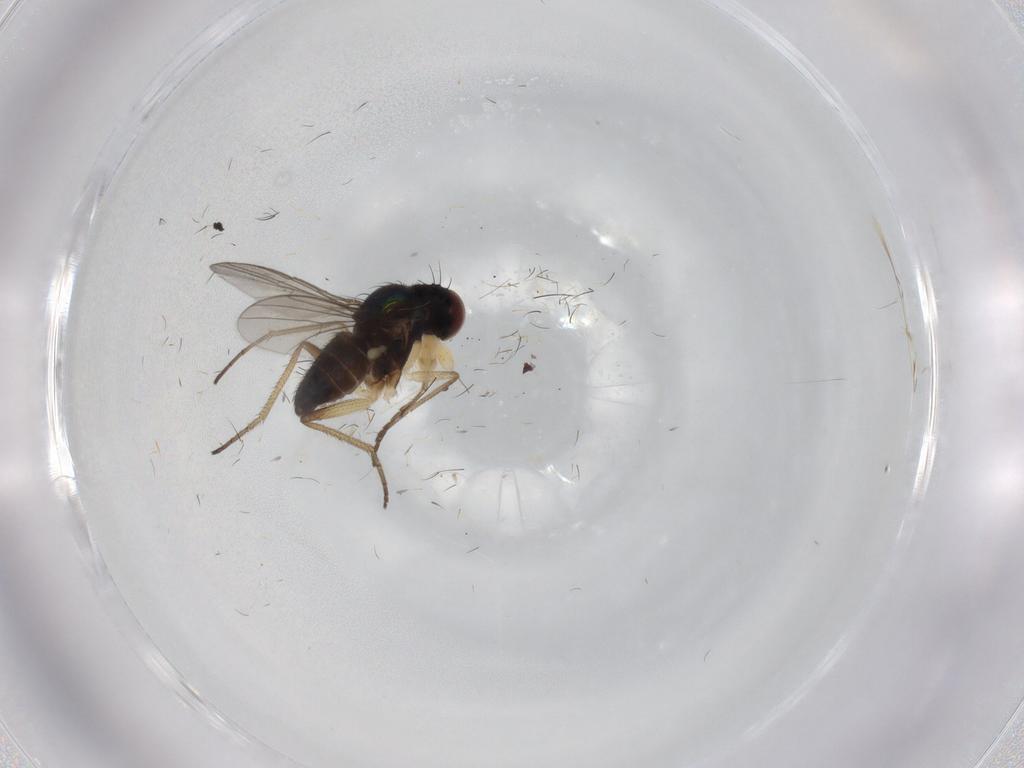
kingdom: Animalia
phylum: Arthropoda
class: Insecta
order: Diptera
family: Dolichopodidae
